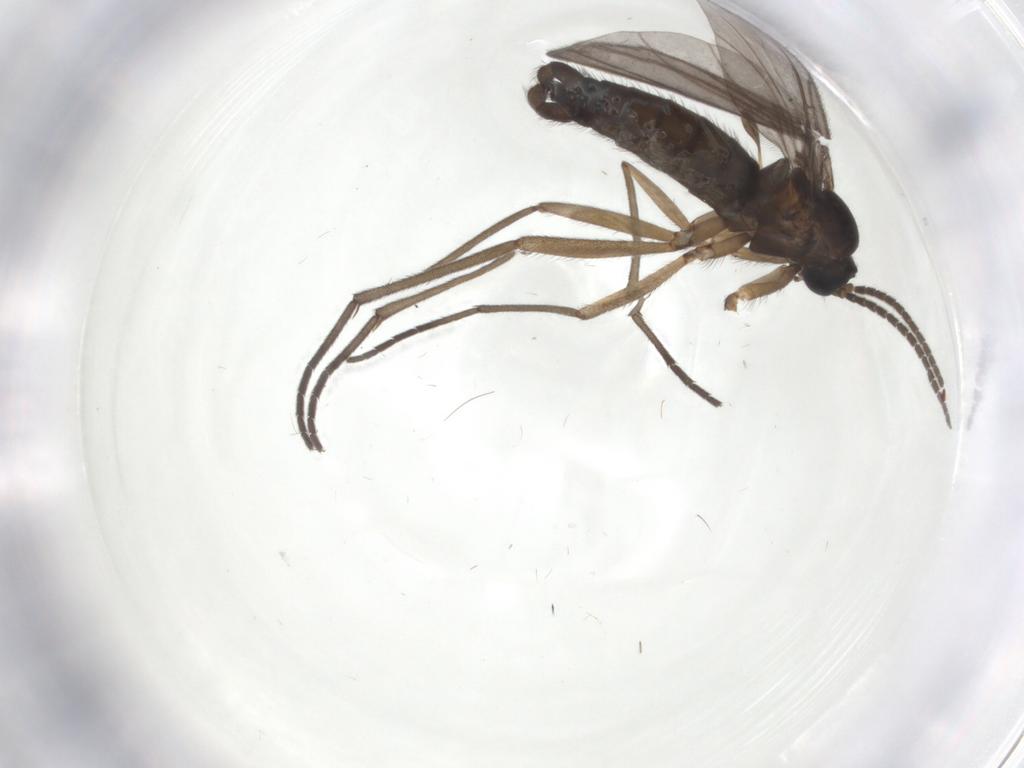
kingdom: Animalia
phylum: Arthropoda
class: Insecta
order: Diptera
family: Sciaridae
